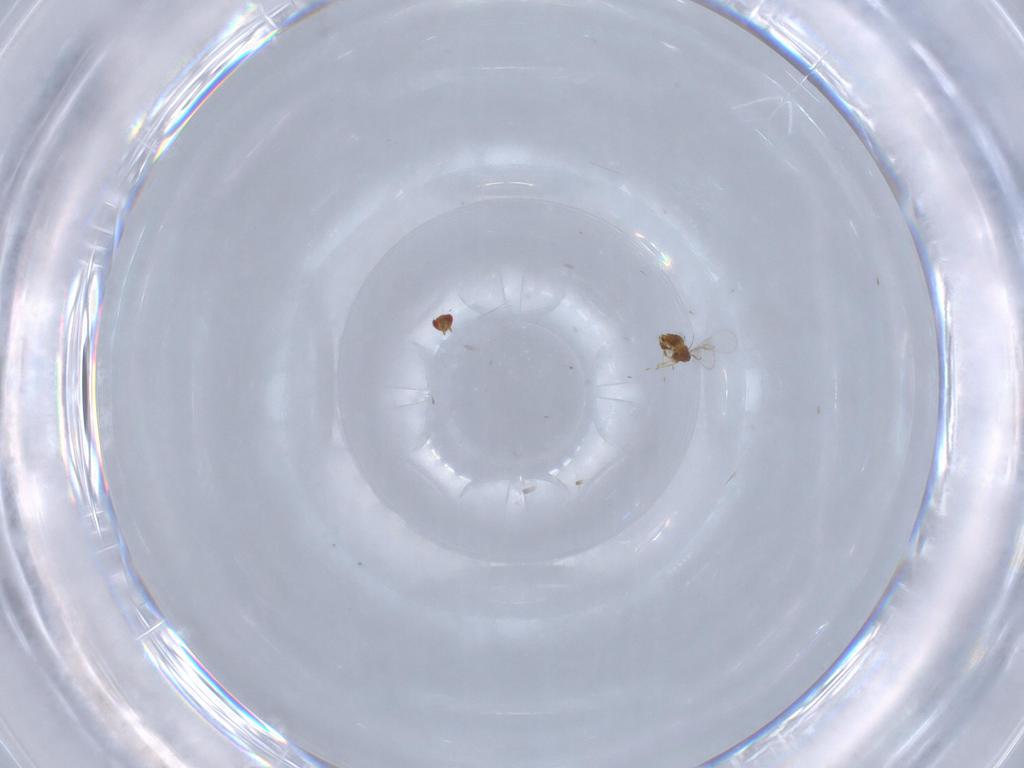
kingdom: Animalia
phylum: Arthropoda
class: Insecta
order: Hymenoptera
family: Trichogrammatidae
